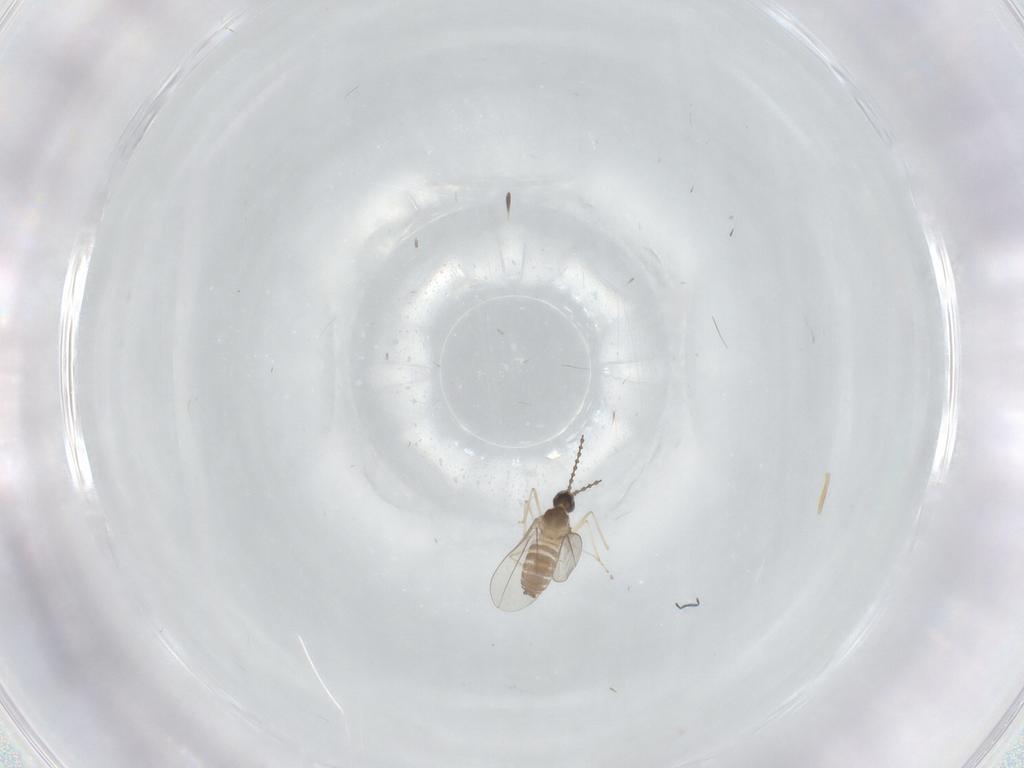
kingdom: Animalia
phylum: Arthropoda
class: Insecta
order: Diptera
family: Cecidomyiidae
